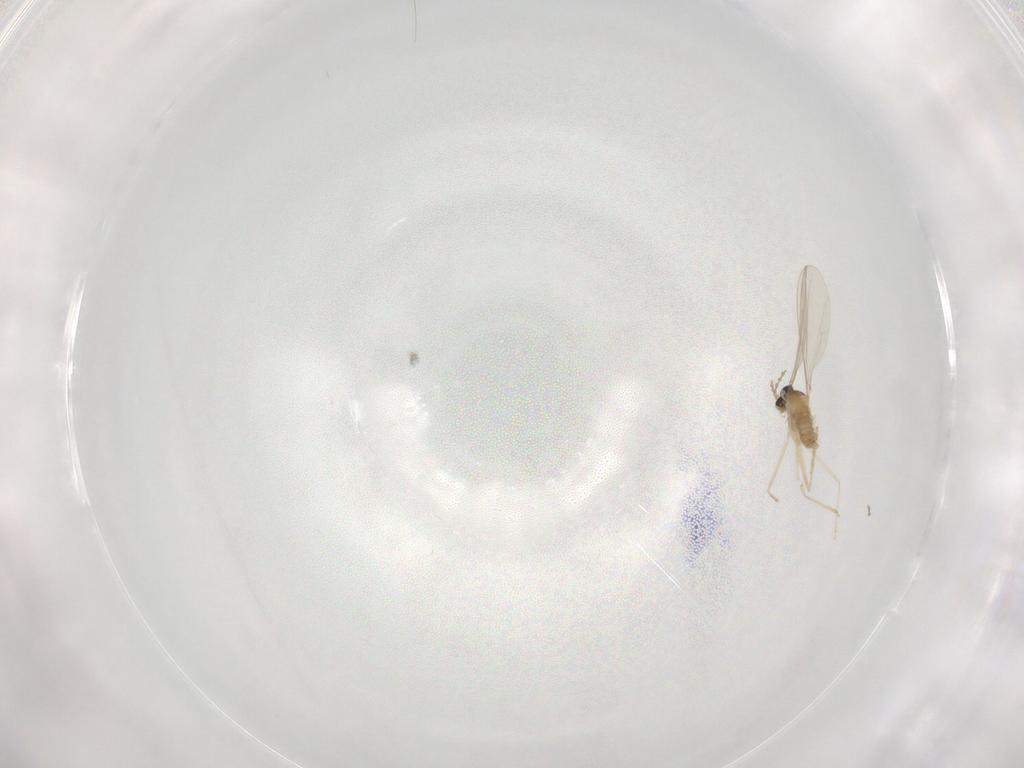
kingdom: Animalia
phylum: Arthropoda
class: Insecta
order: Diptera
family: Cecidomyiidae
